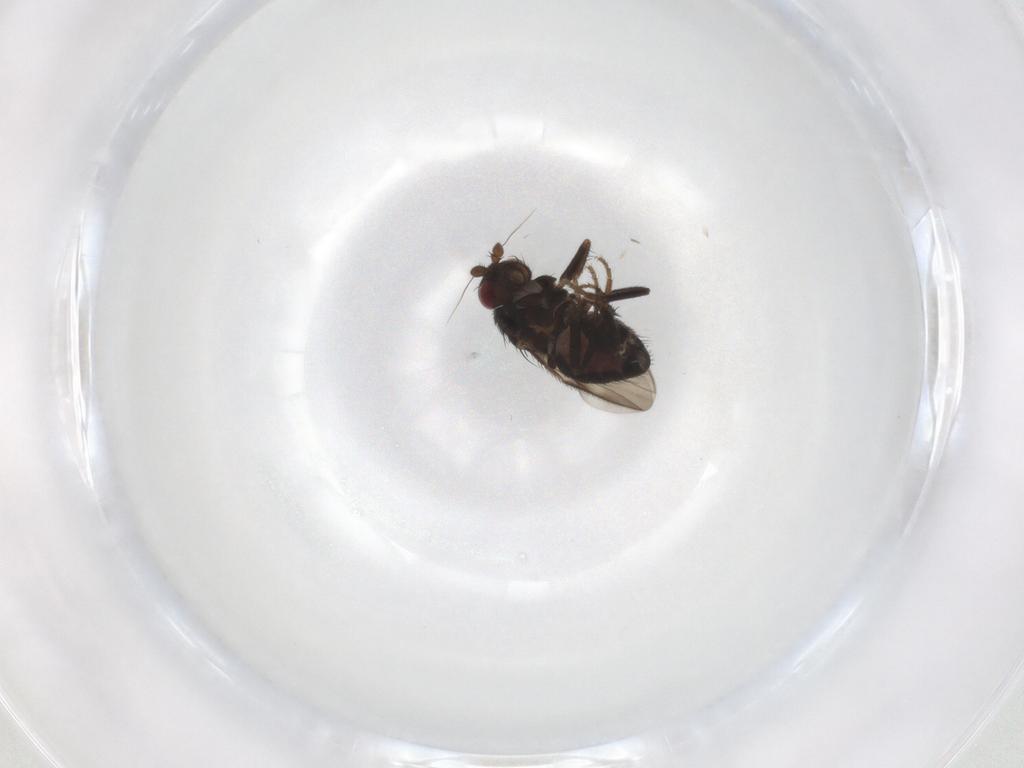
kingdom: Animalia
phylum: Arthropoda
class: Insecta
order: Diptera
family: Sphaeroceridae
